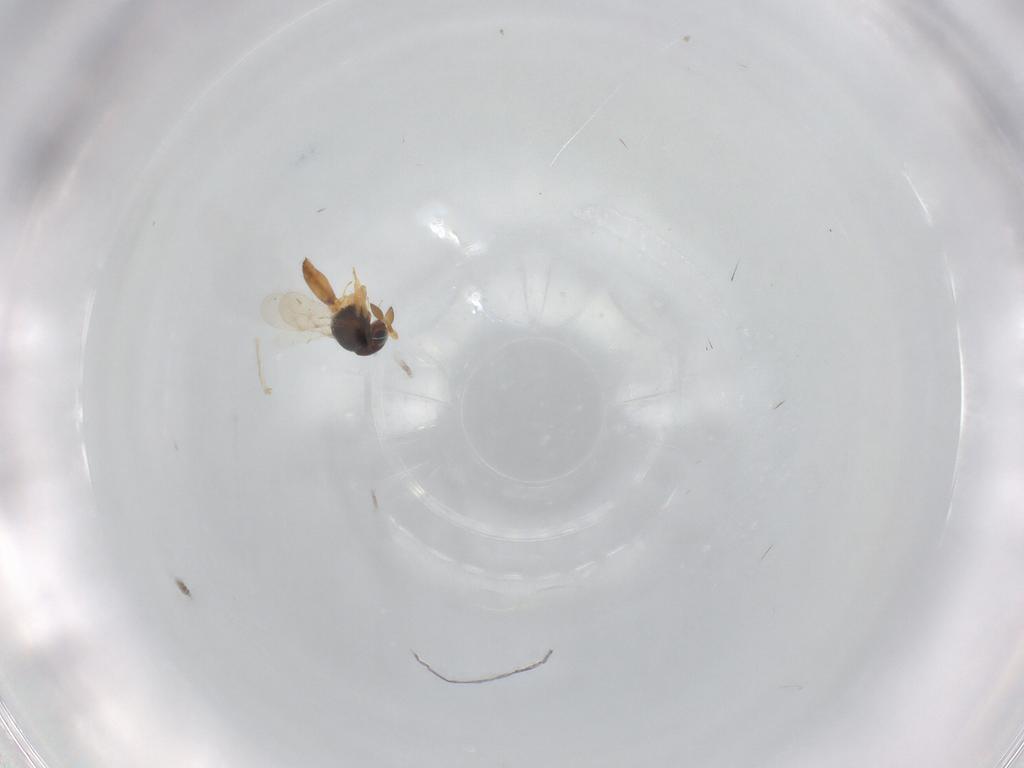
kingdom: Animalia
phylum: Arthropoda
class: Insecta
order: Hymenoptera
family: Scelionidae
